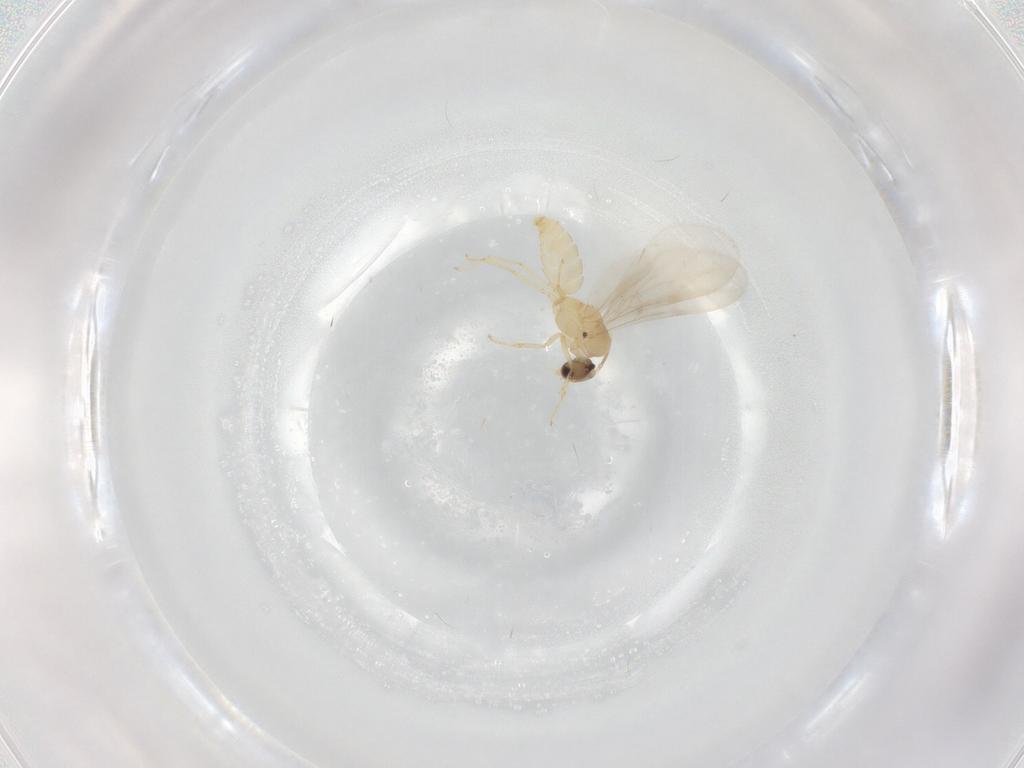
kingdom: Animalia
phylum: Arthropoda
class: Insecta
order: Hymenoptera
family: Formicidae
